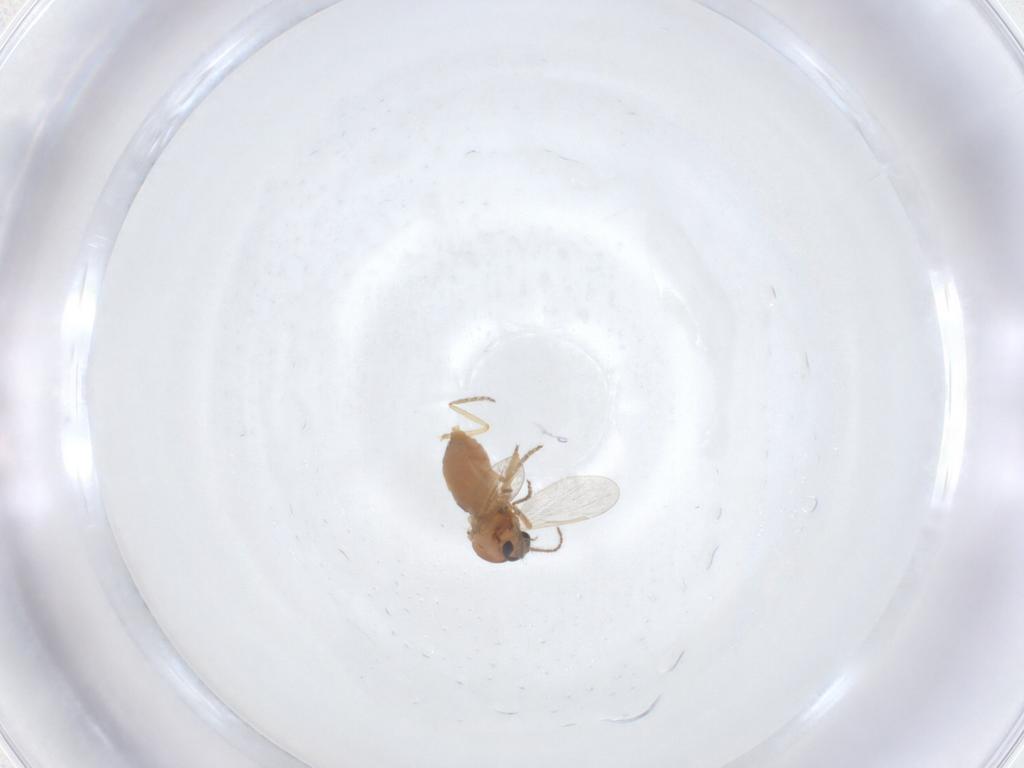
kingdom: Animalia
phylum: Arthropoda
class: Insecta
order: Diptera
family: Ceratopogonidae
